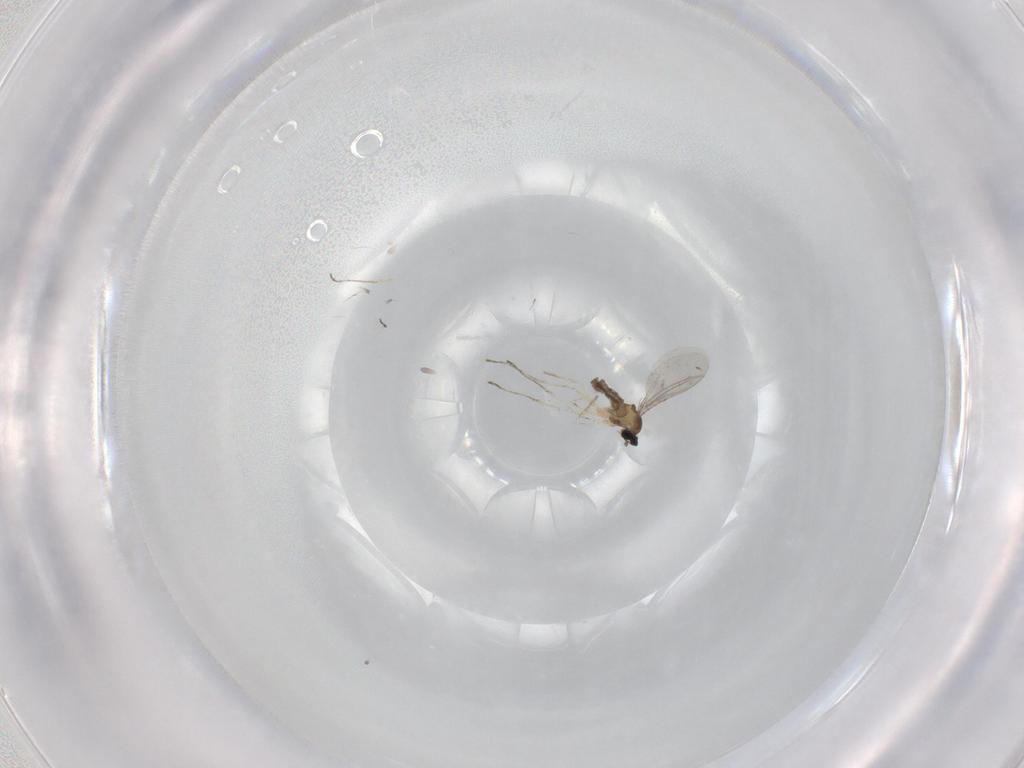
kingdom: Animalia
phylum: Arthropoda
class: Insecta
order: Diptera
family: Cecidomyiidae
